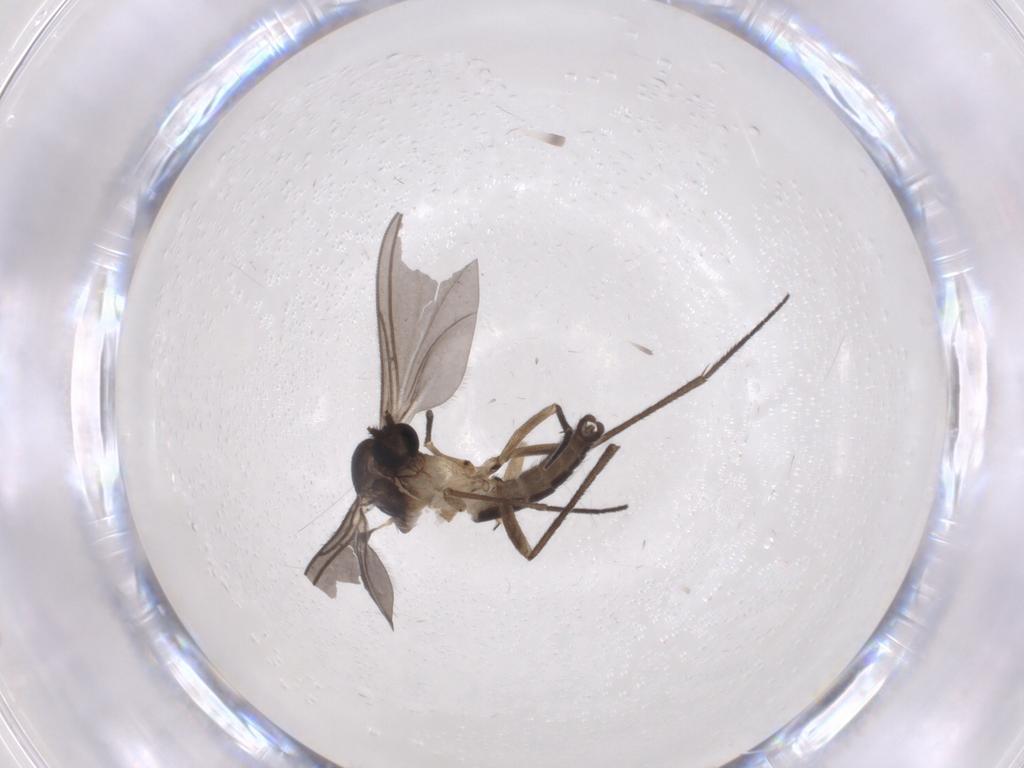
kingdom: Animalia
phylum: Arthropoda
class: Insecta
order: Diptera
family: Sciaridae
